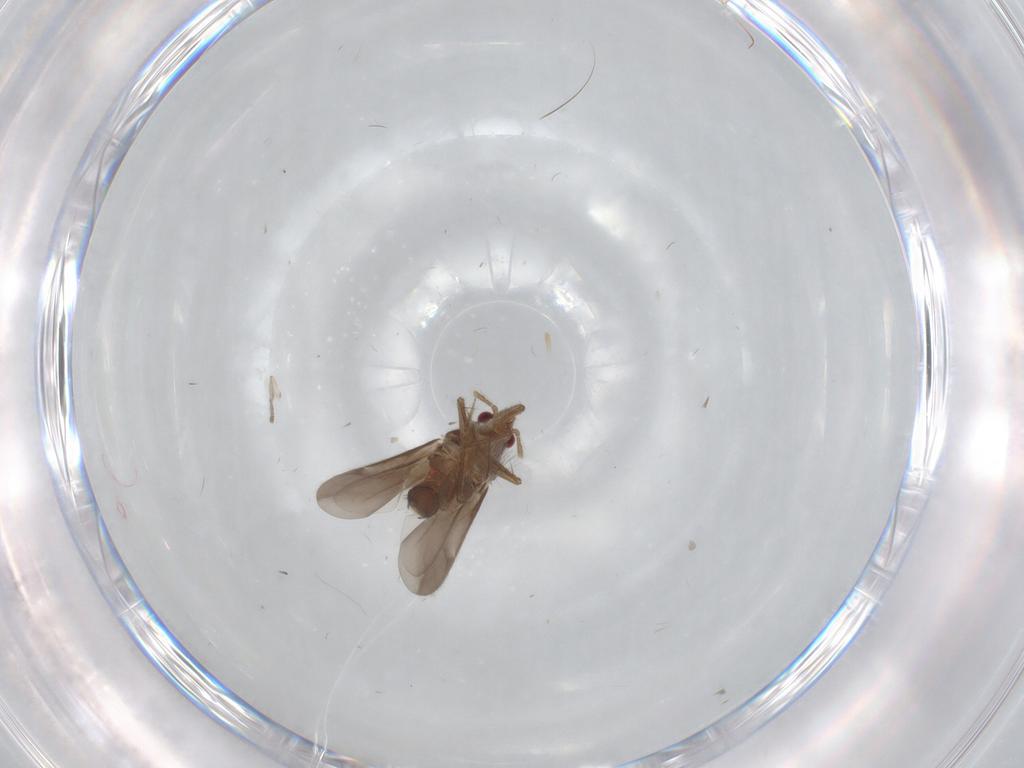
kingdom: Animalia
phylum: Arthropoda
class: Insecta
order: Hemiptera
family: Ceratocombidae
